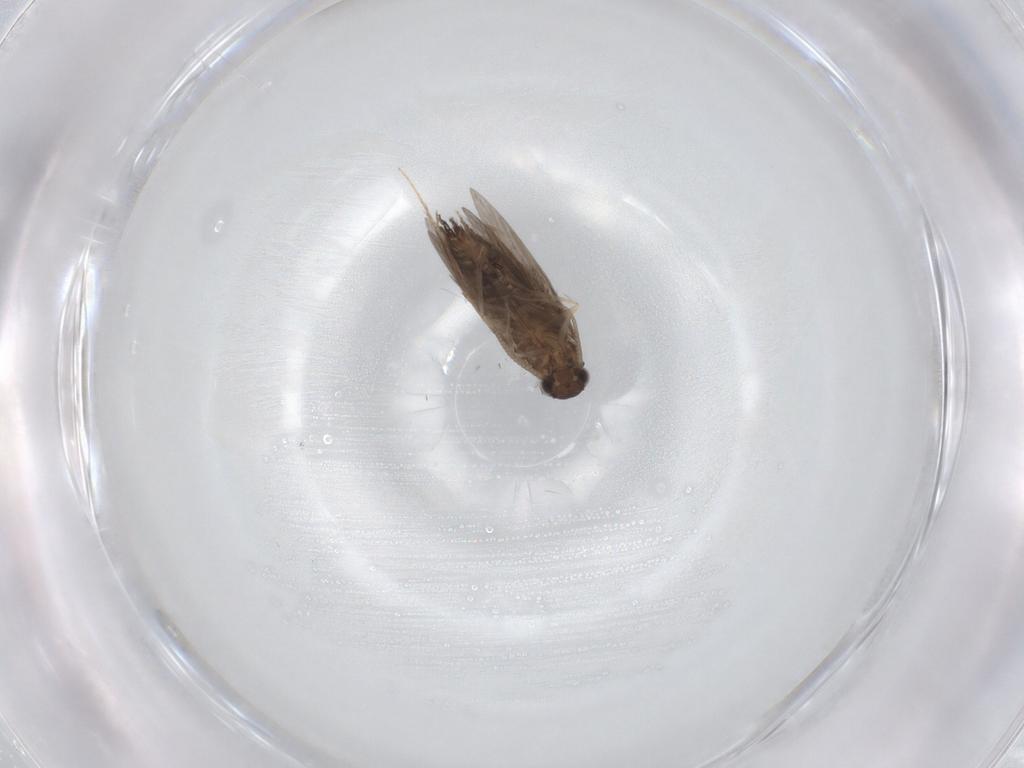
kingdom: Animalia
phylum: Arthropoda
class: Insecta
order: Trichoptera
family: Hydroptilidae
